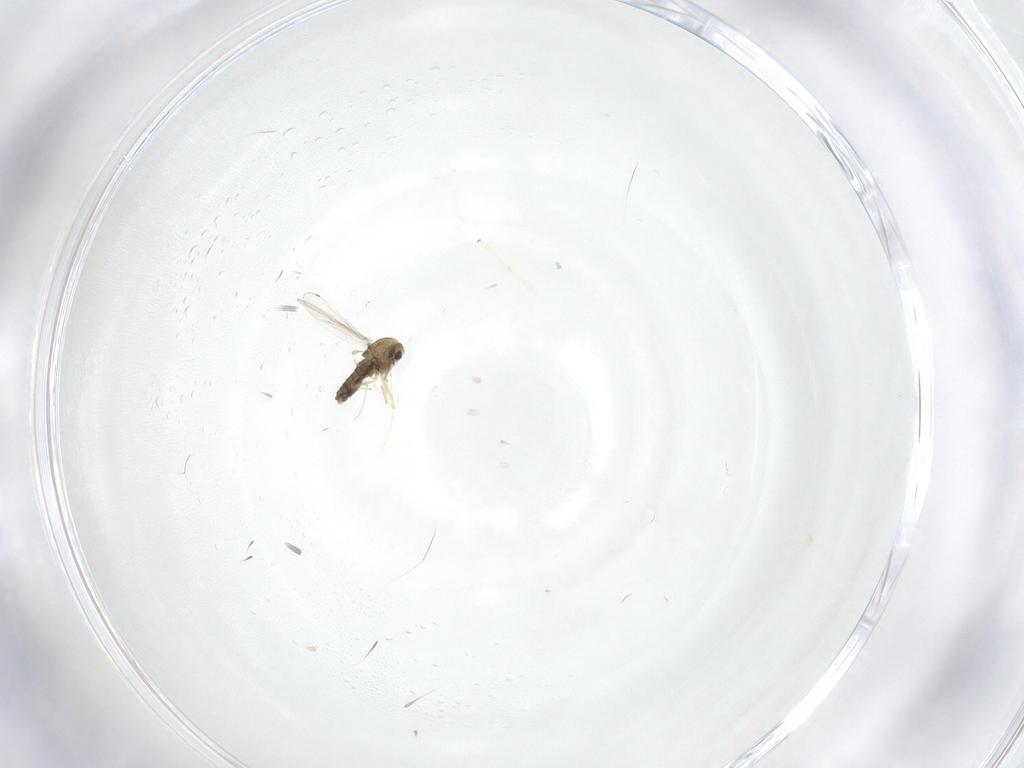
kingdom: Animalia
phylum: Arthropoda
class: Insecta
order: Diptera
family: Chironomidae
